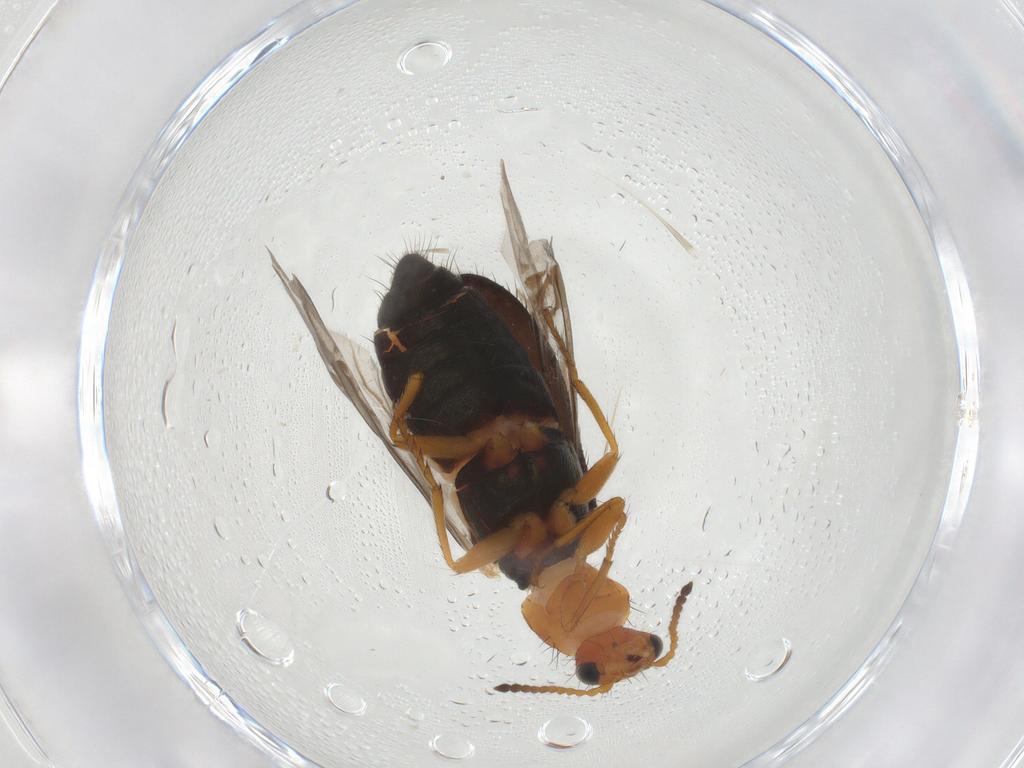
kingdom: Animalia
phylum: Arthropoda
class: Insecta
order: Coleoptera
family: Melyridae
